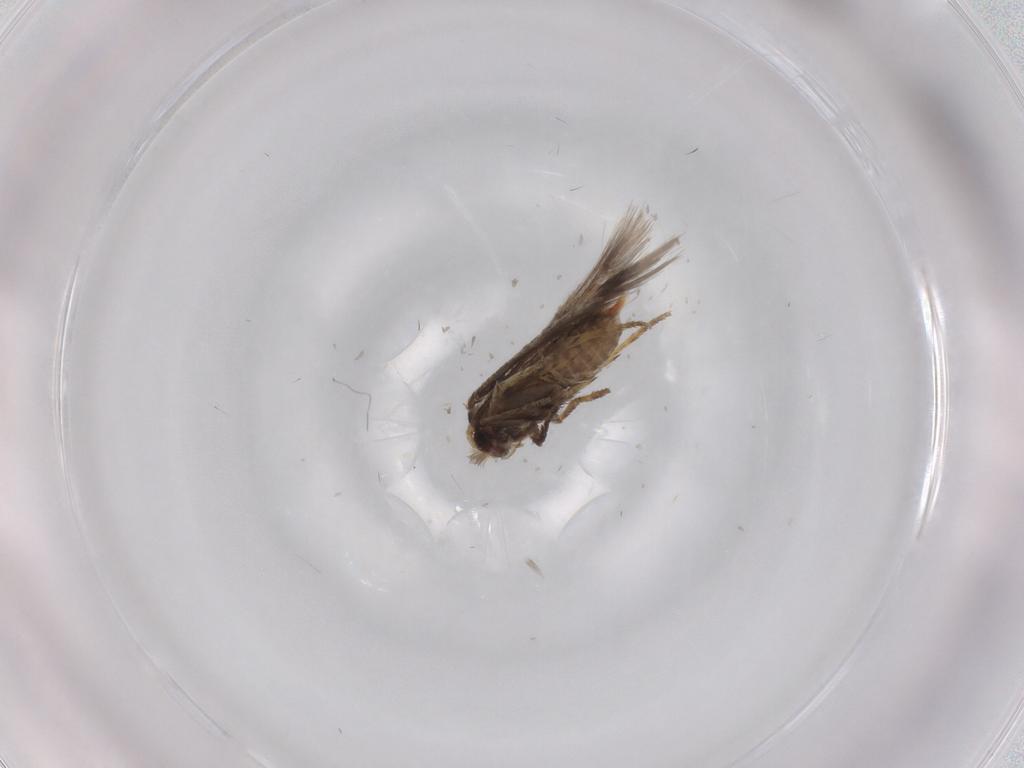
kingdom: Animalia
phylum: Arthropoda
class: Insecta
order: Lepidoptera
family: Nepticulidae
